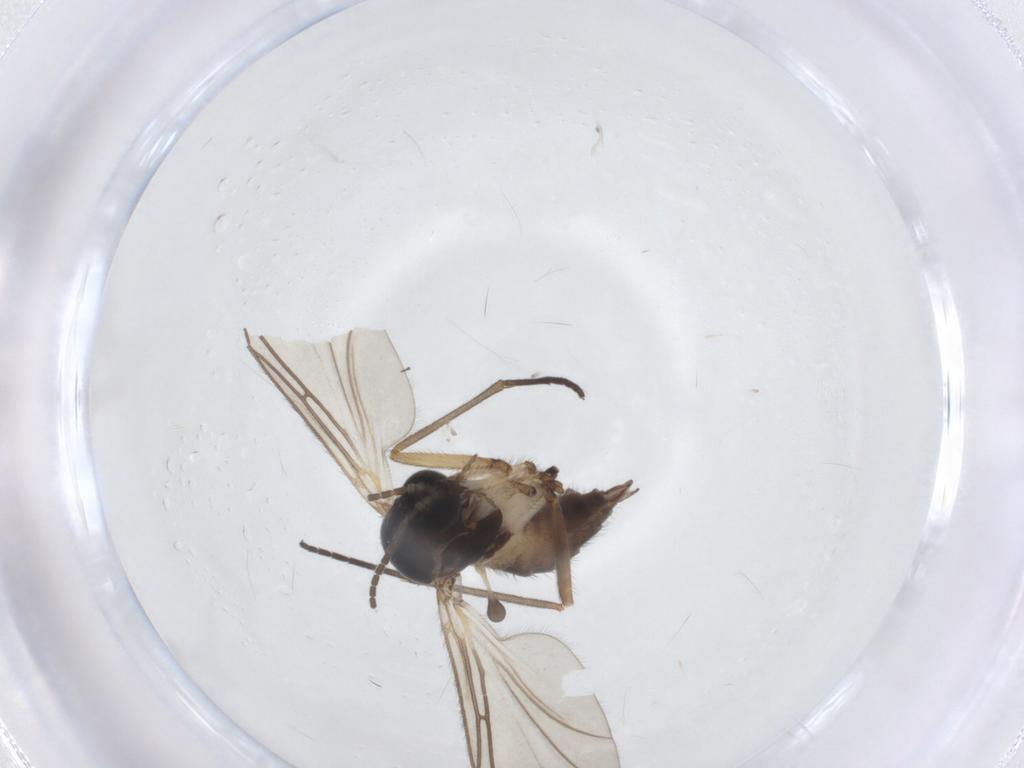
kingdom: Animalia
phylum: Arthropoda
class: Insecta
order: Diptera
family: Sciaridae
